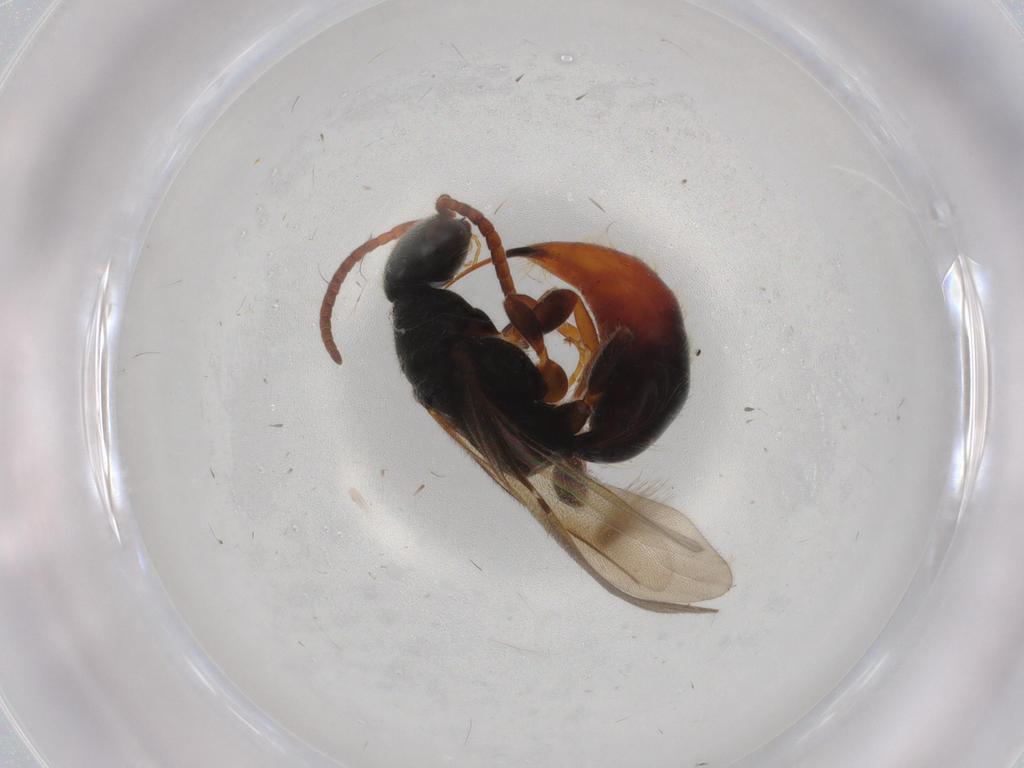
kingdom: Animalia
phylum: Arthropoda
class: Insecta
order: Hymenoptera
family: Bethylidae
